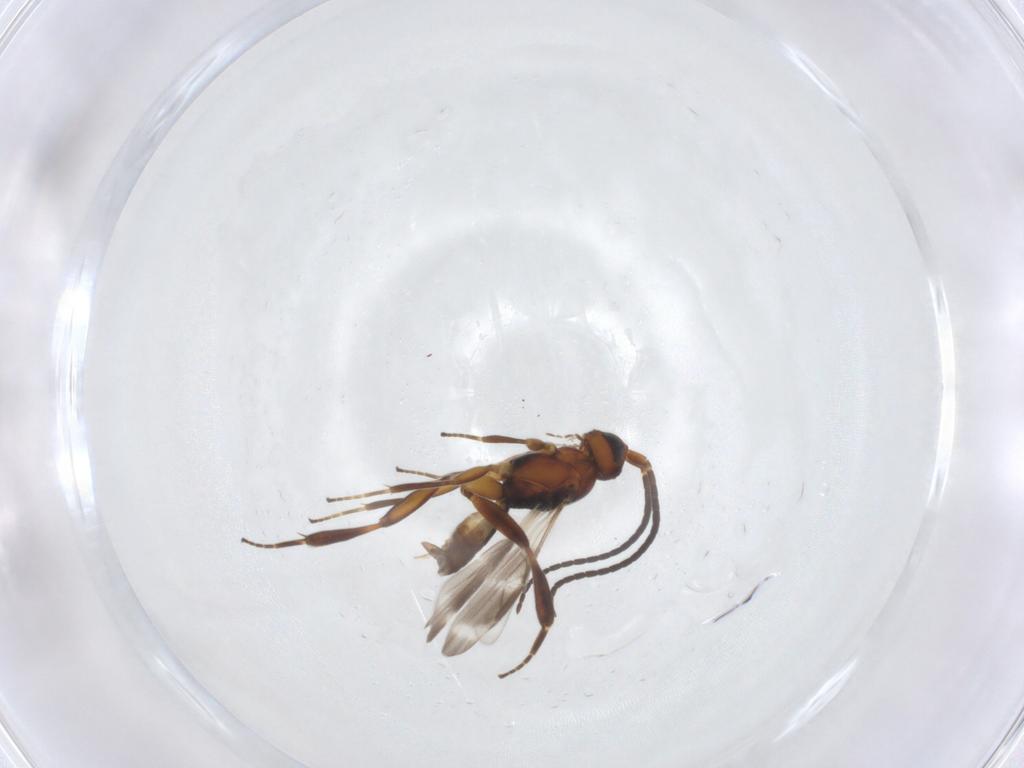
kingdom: Animalia
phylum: Arthropoda
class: Insecta
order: Hymenoptera
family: Braconidae
